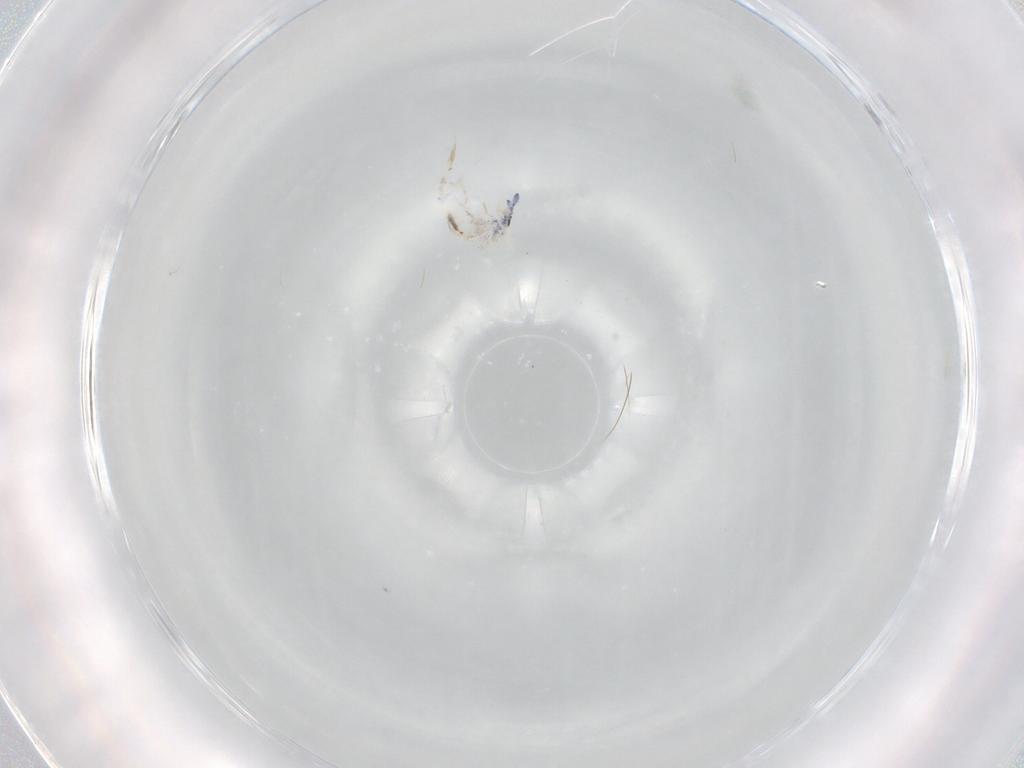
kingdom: Animalia
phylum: Arthropoda
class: Collembola
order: Entomobryomorpha
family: Entomobryidae
